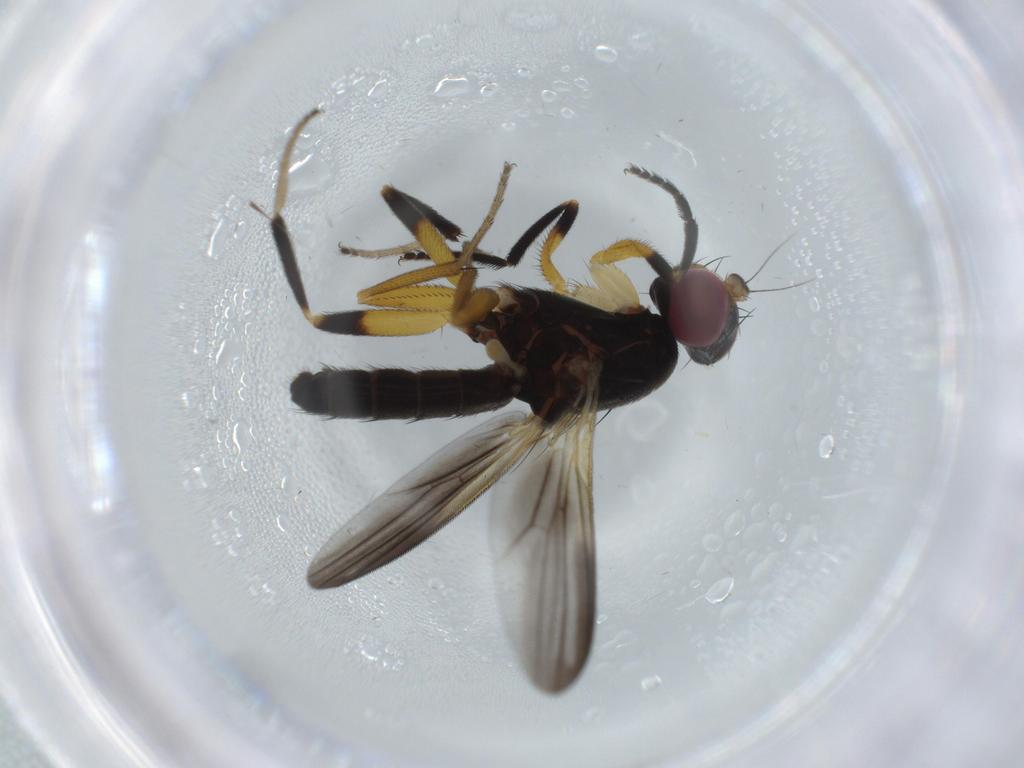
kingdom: Animalia
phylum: Arthropoda
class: Insecta
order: Diptera
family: Clusiidae
